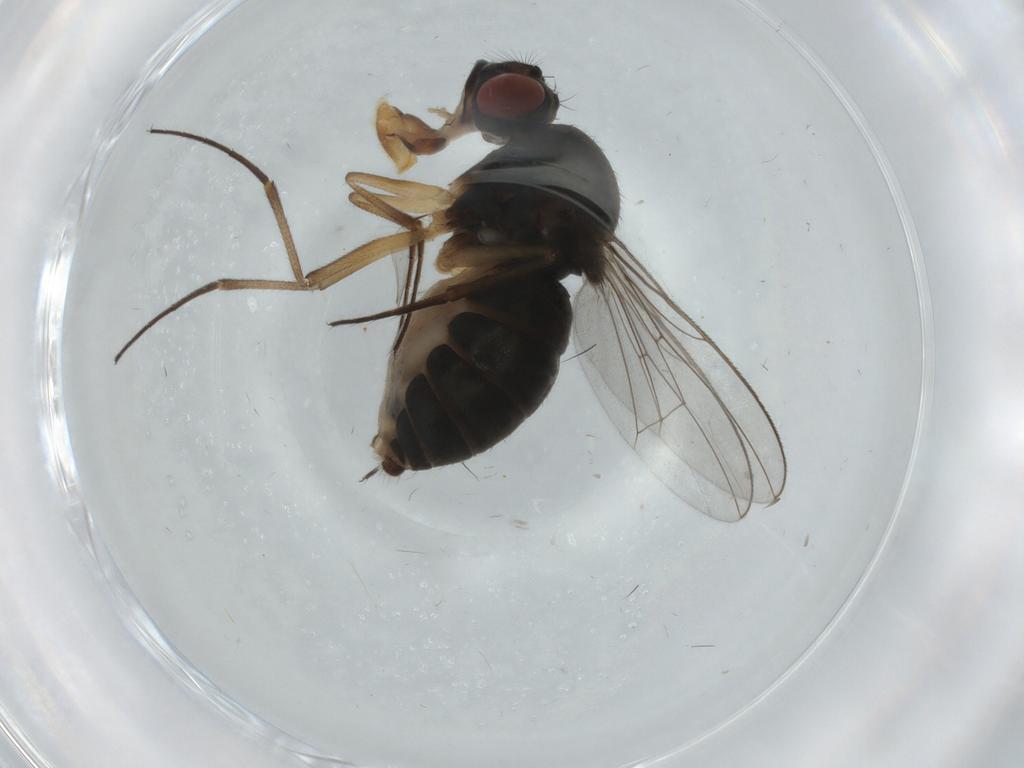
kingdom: Animalia
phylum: Arthropoda
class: Insecta
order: Diptera
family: Ephydridae
